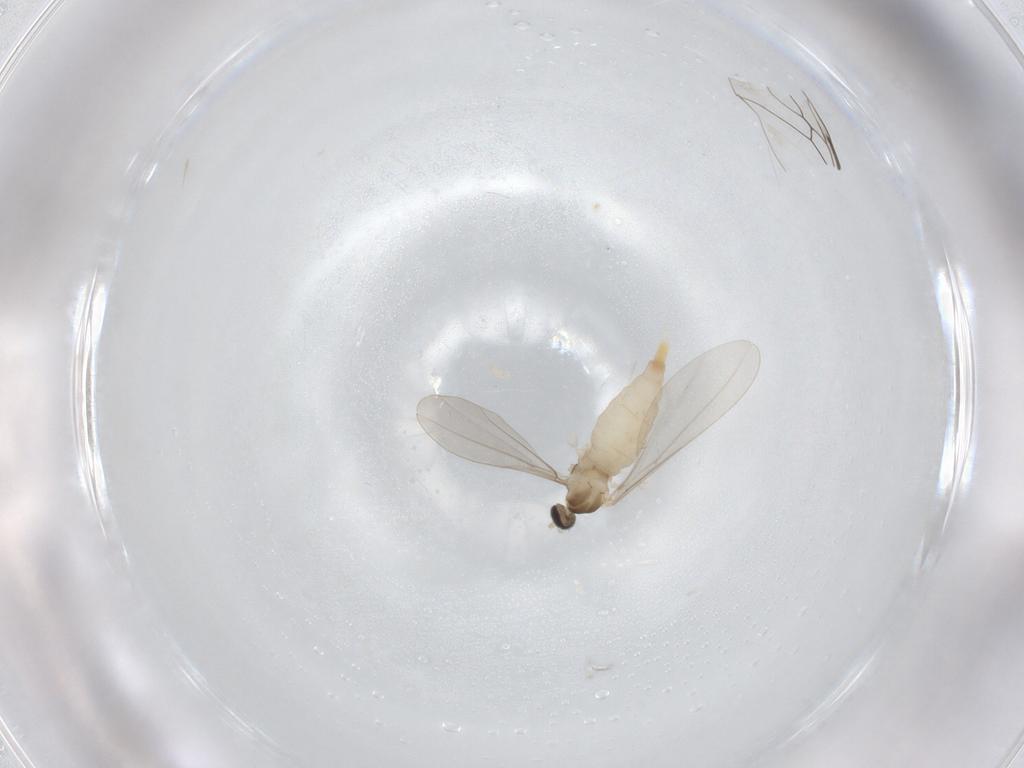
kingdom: Animalia
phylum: Arthropoda
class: Insecta
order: Diptera
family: Cecidomyiidae
